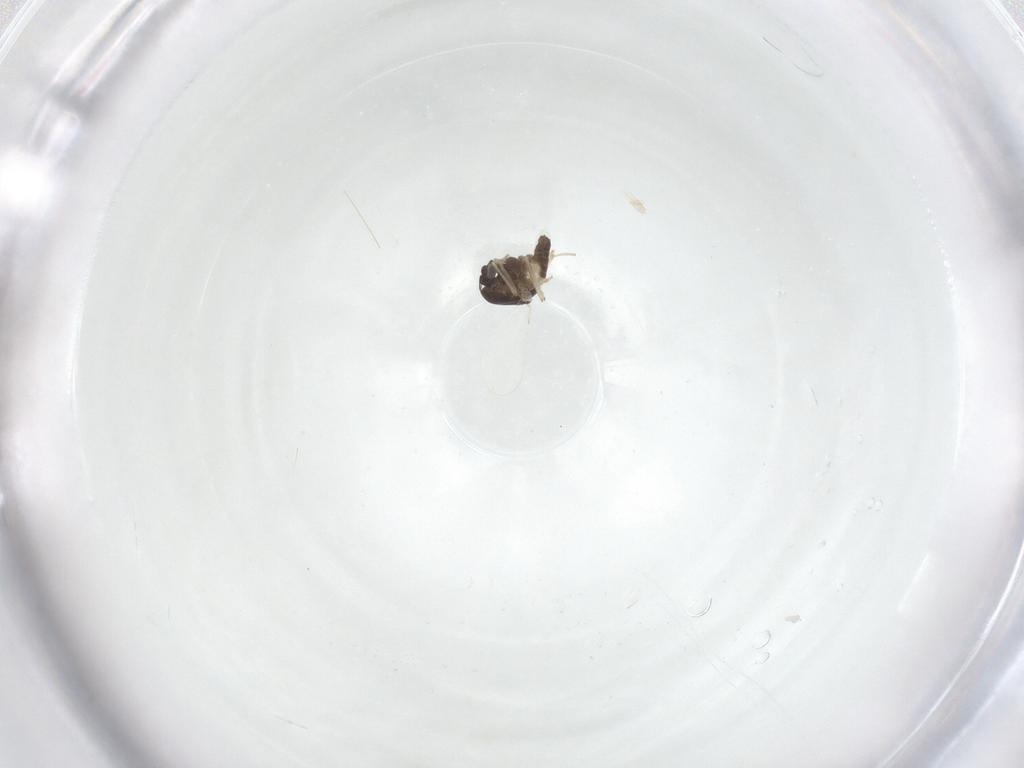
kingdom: Animalia
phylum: Arthropoda
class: Insecta
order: Diptera
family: Chironomidae
